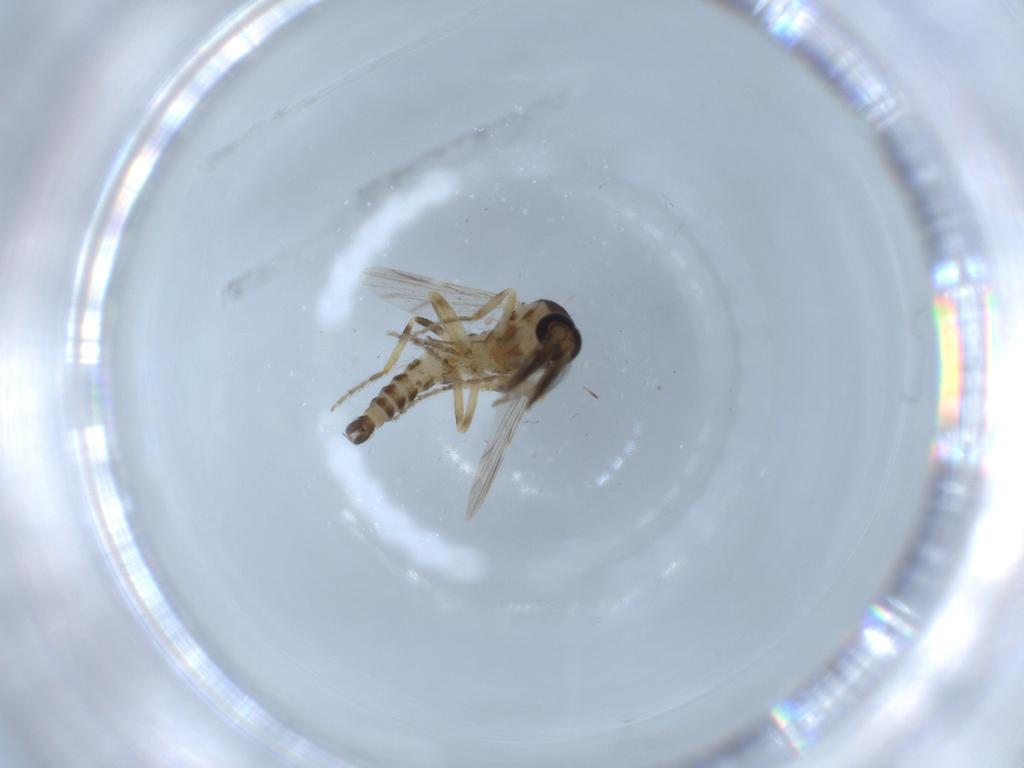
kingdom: Animalia
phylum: Arthropoda
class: Insecta
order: Diptera
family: Ceratopogonidae
